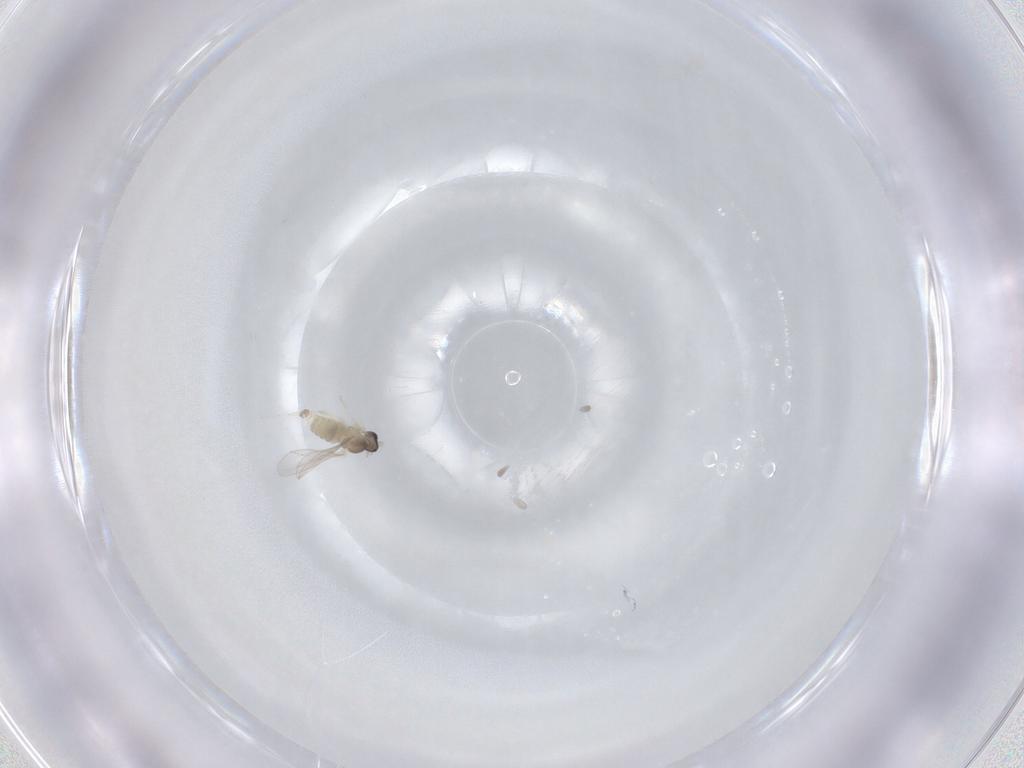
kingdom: Animalia
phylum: Arthropoda
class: Insecta
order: Diptera
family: Cecidomyiidae
